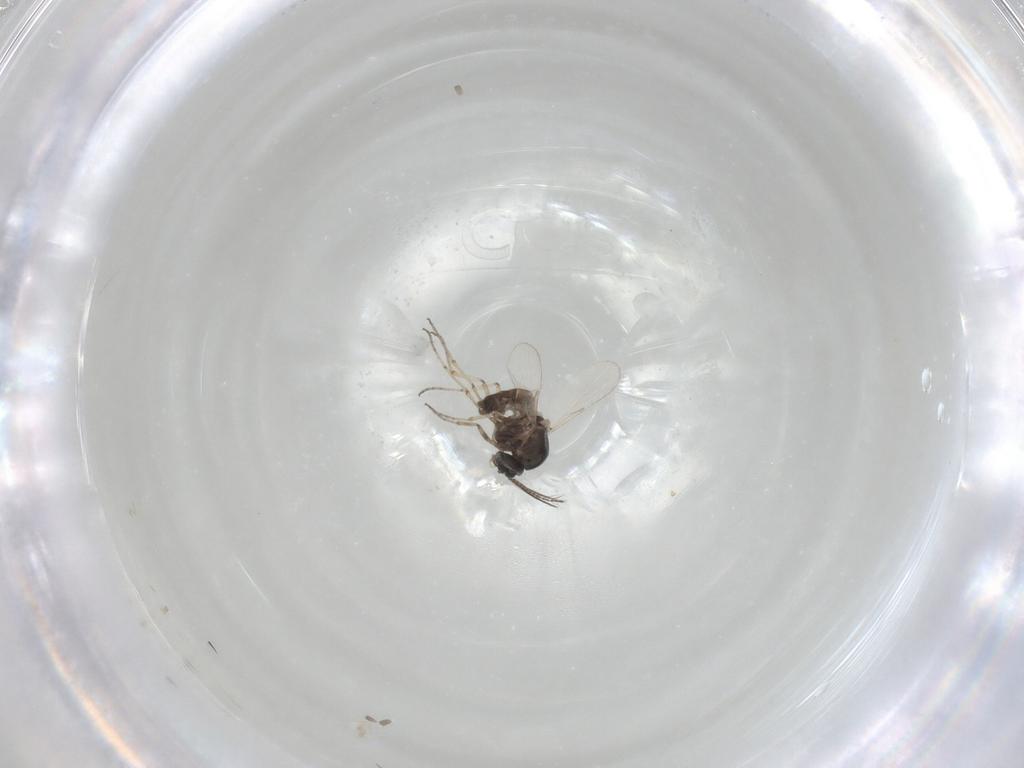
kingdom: Animalia
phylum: Arthropoda
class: Insecta
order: Diptera
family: Ceratopogonidae
